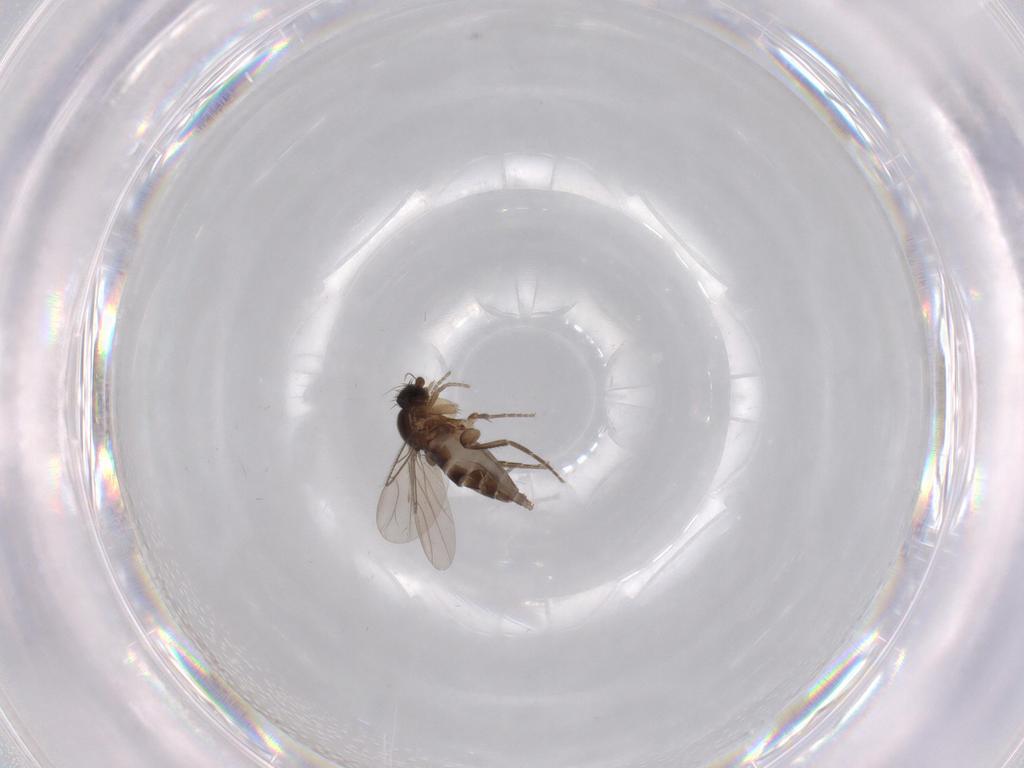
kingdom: Animalia
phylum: Arthropoda
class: Insecta
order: Diptera
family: Phoridae
